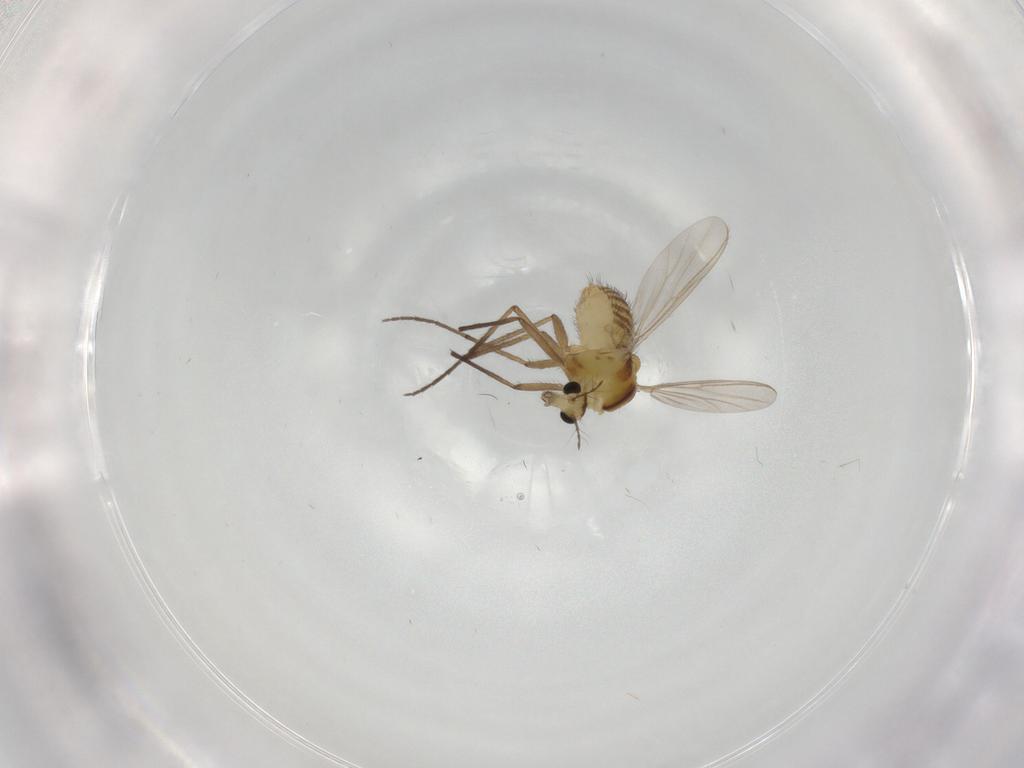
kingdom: Animalia
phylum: Arthropoda
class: Insecta
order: Diptera
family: Chironomidae
